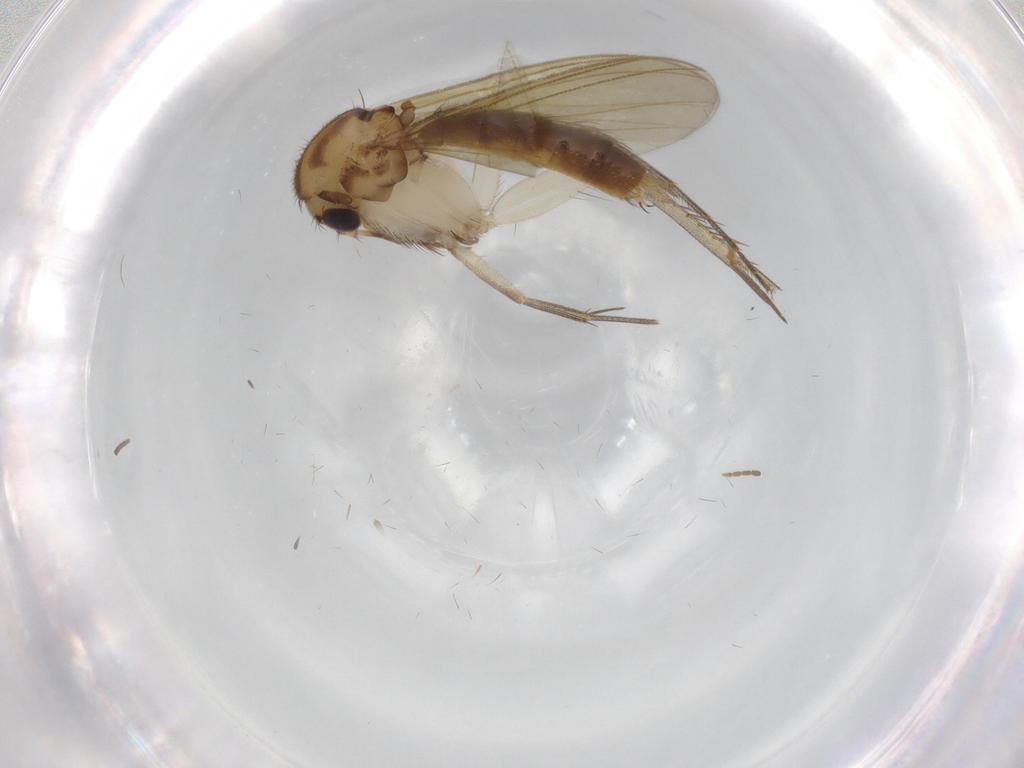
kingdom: Animalia
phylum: Arthropoda
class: Insecta
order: Diptera
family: Mycetophilidae
